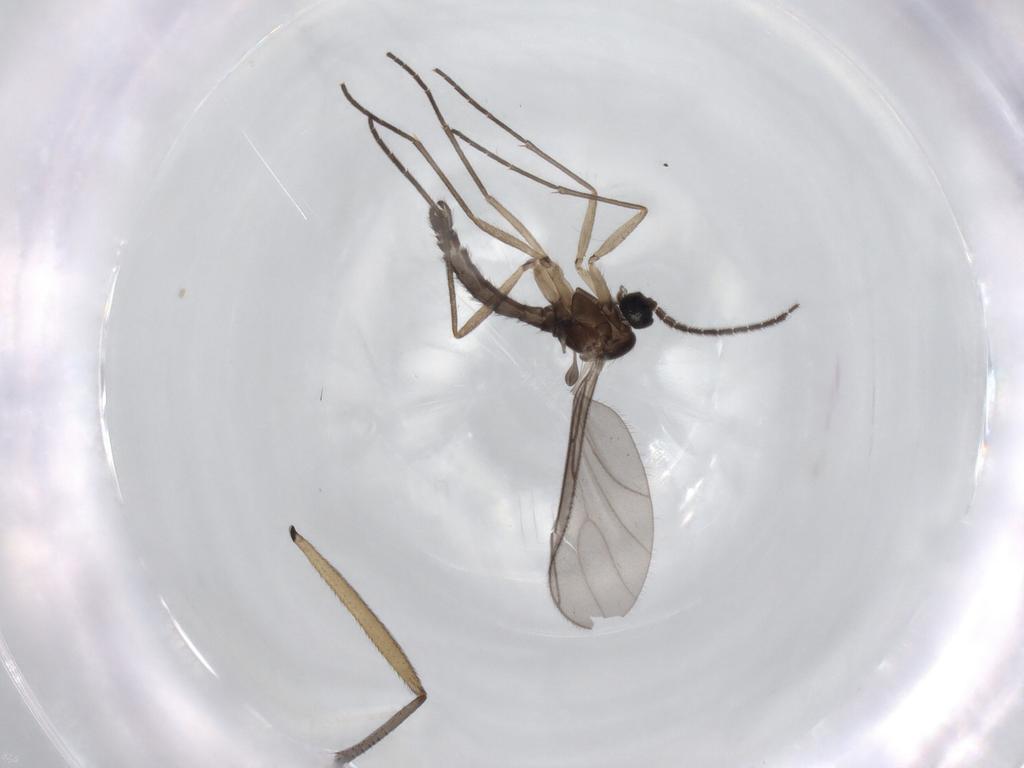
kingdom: Animalia
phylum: Arthropoda
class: Insecta
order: Diptera
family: Sciaridae
